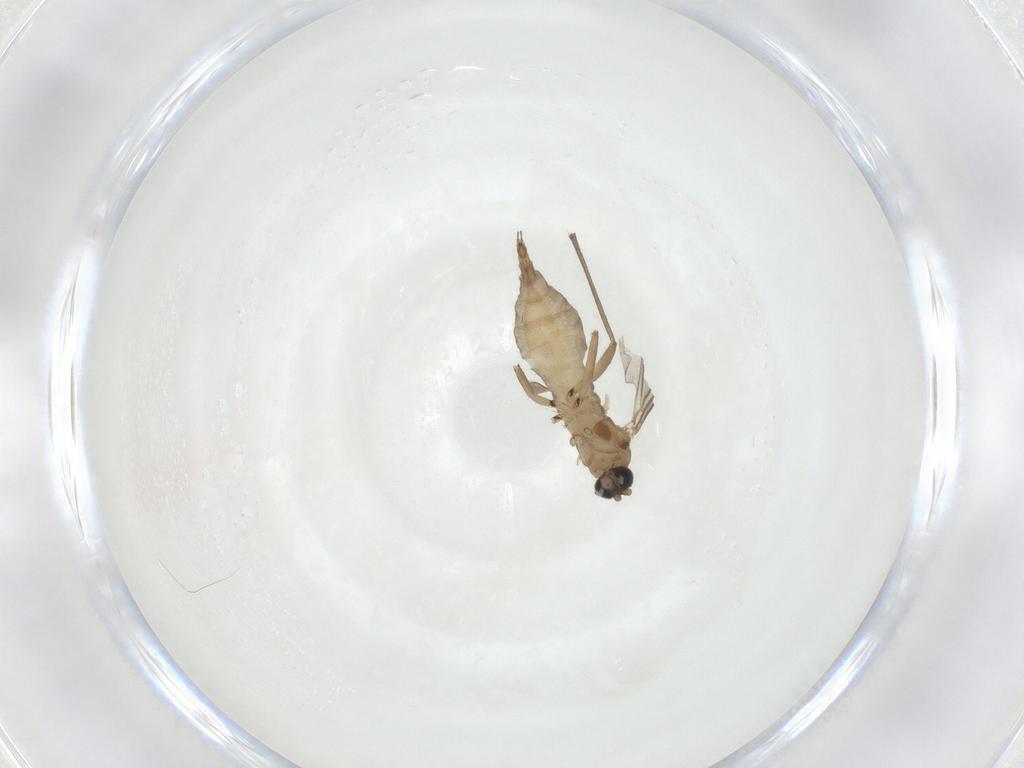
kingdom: Animalia
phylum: Arthropoda
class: Insecta
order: Diptera
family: Sciaridae
